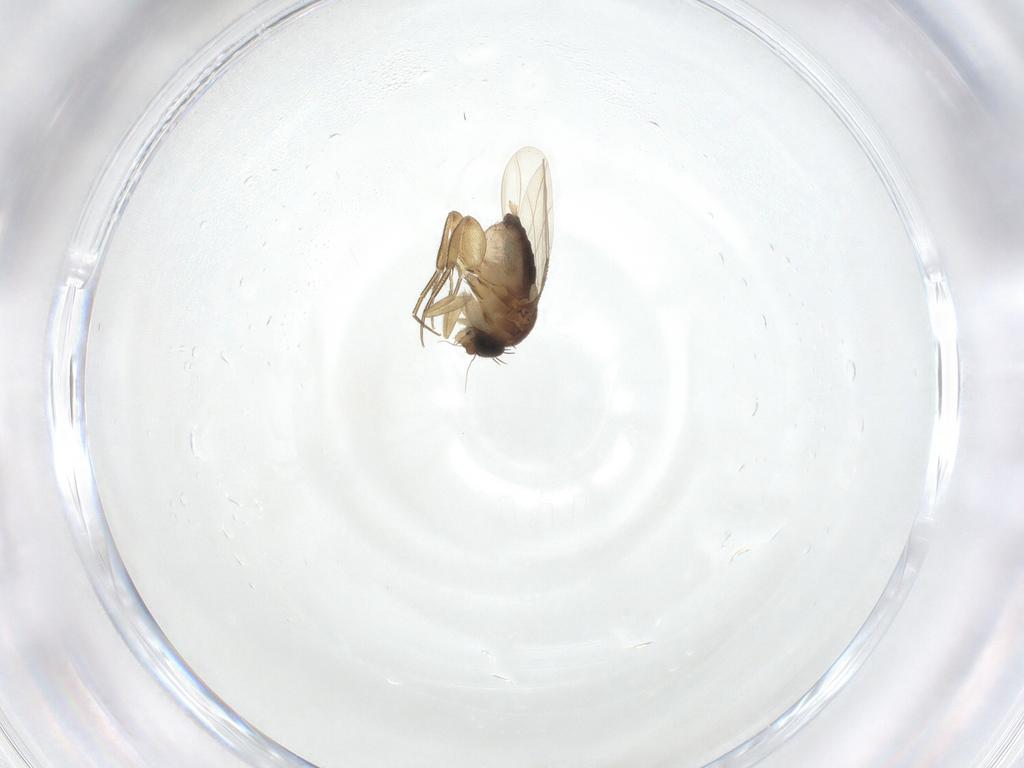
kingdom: Animalia
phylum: Arthropoda
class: Insecta
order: Diptera
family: Phoridae
